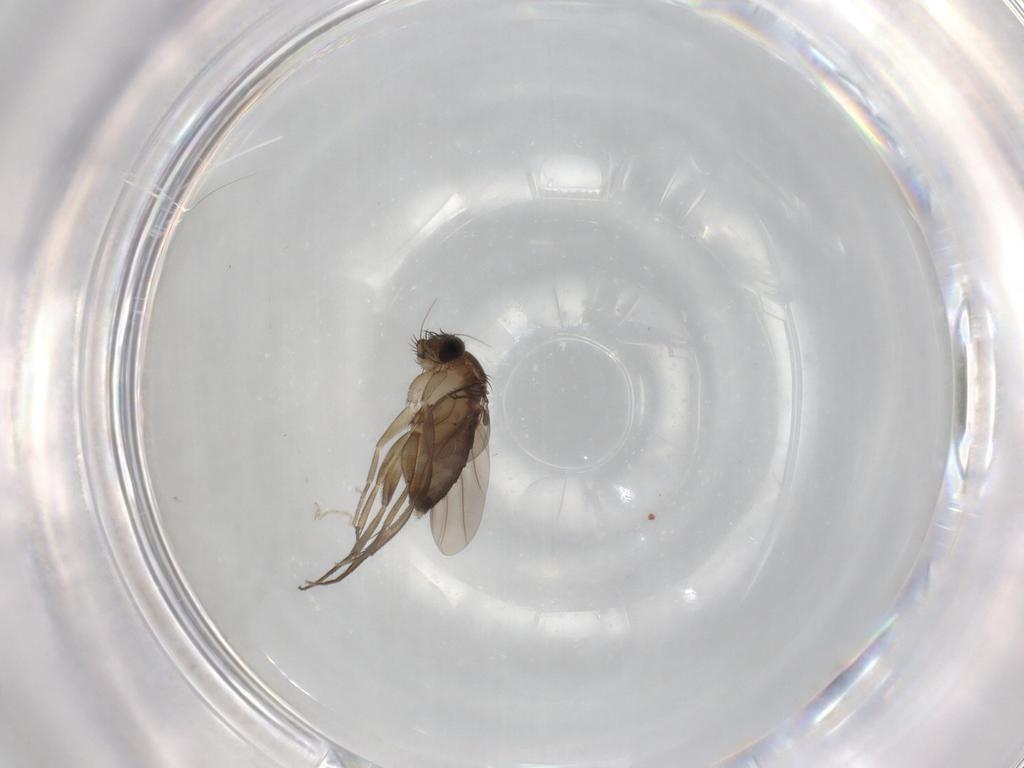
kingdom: Animalia
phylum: Arthropoda
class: Insecta
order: Diptera
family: Phoridae
